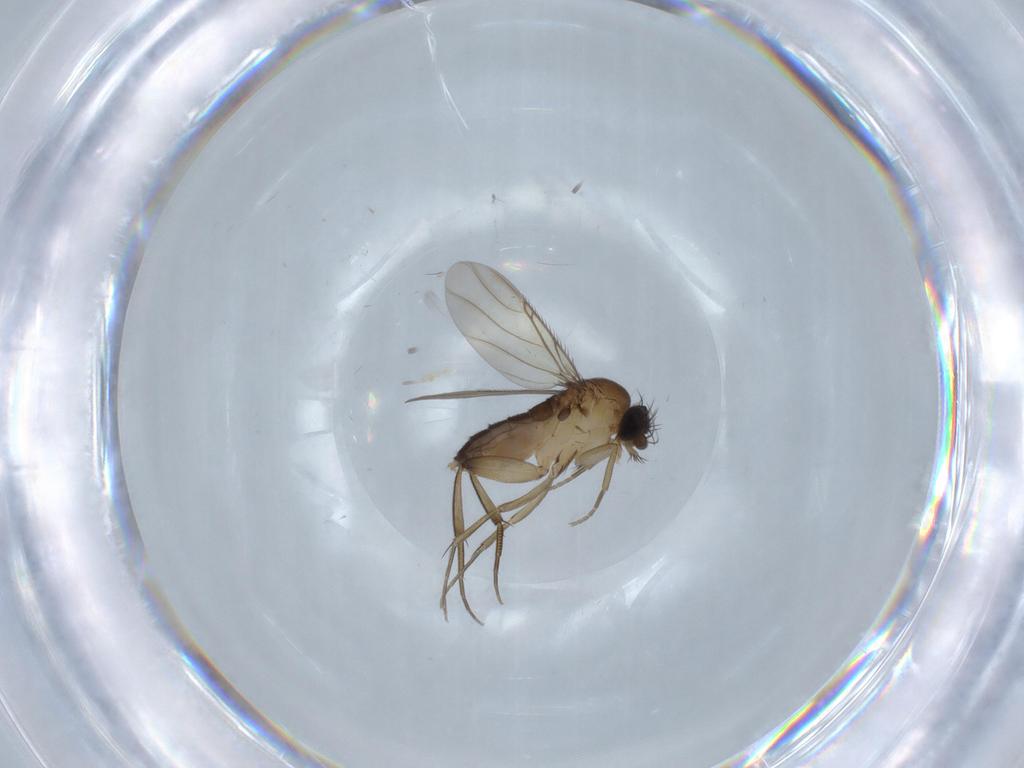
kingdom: Animalia
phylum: Arthropoda
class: Insecta
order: Diptera
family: Phoridae
